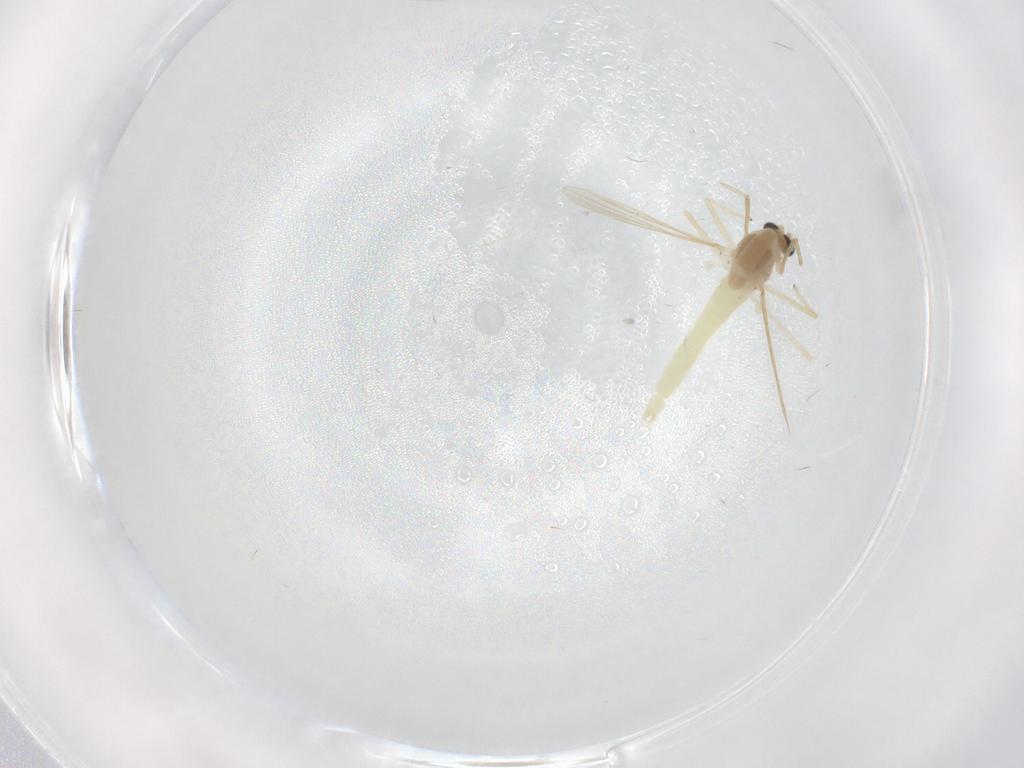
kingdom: Animalia
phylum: Arthropoda
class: Insecta
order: Diptera
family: Chironomidae
